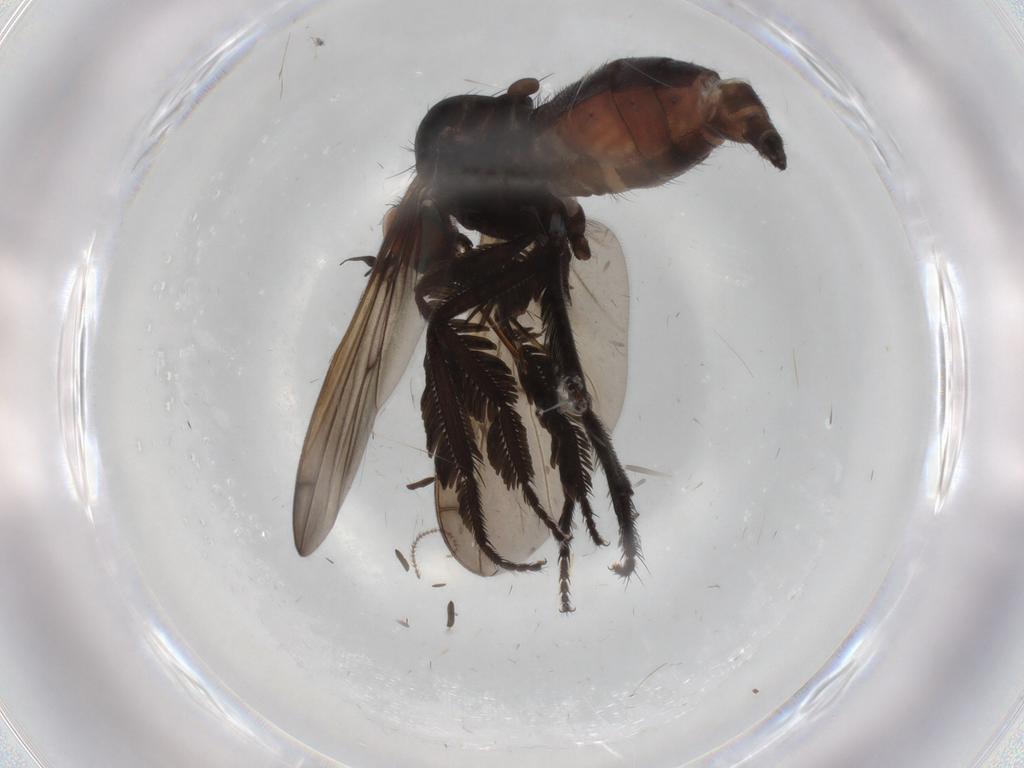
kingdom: Animalia
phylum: Arthropoda
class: Insecta
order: Diptera
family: Empididae
